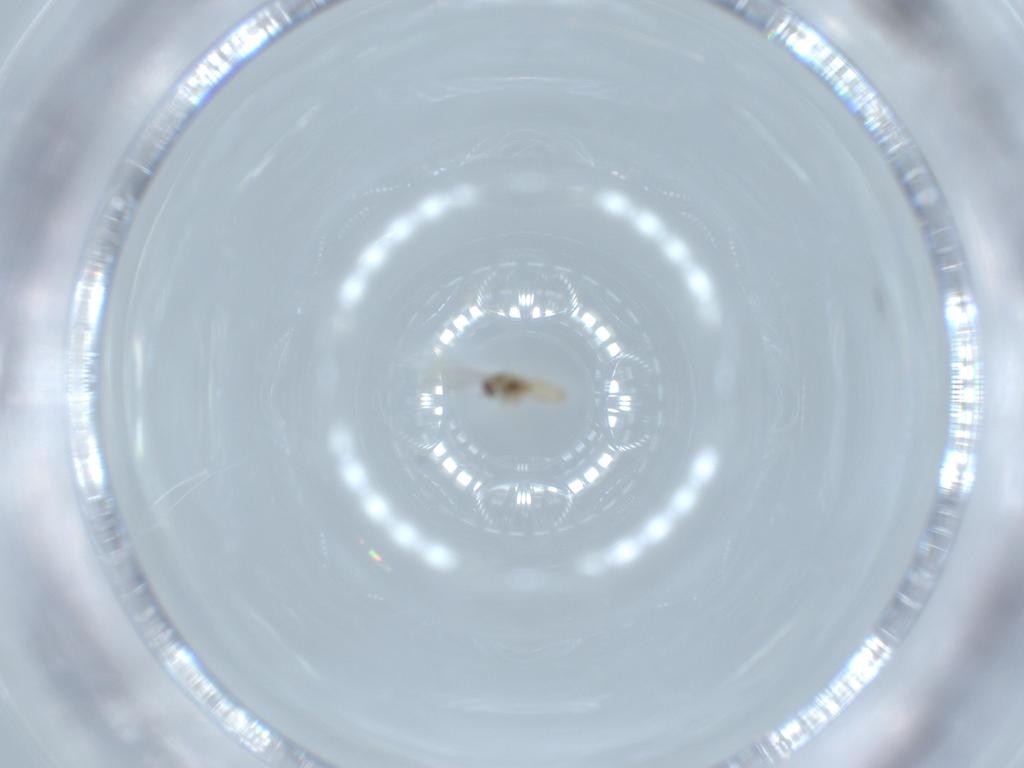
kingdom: Animalia
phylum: Arthropoda
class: Insecta
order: Diptera
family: Cecidomyiidae
